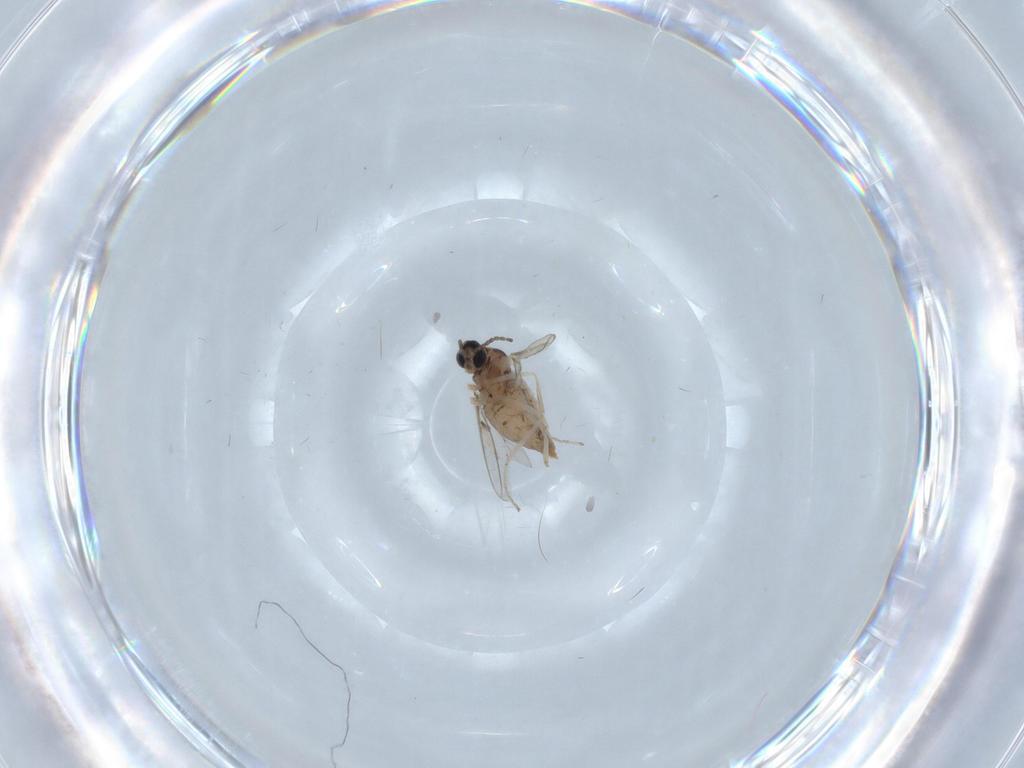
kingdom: Animalia
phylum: Arthropoda
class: Insecta
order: Diptera
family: Cecidomyiidae
